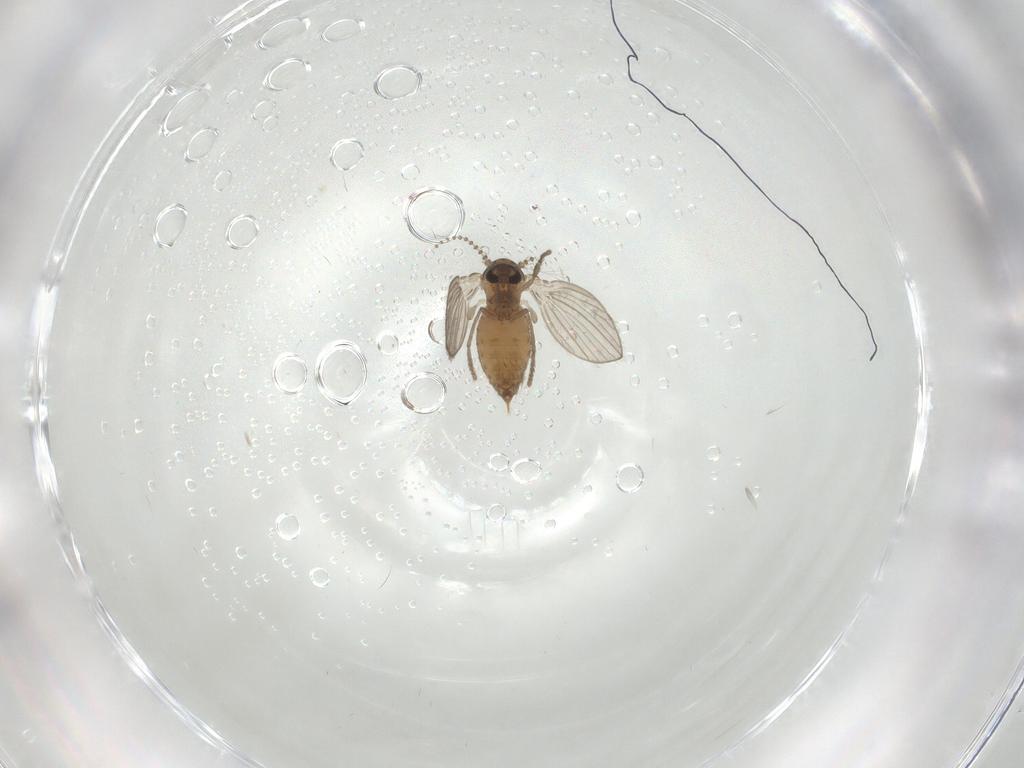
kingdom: Animalia
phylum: Arthropoda
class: Insecta
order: Diptera
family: Psychodidae
